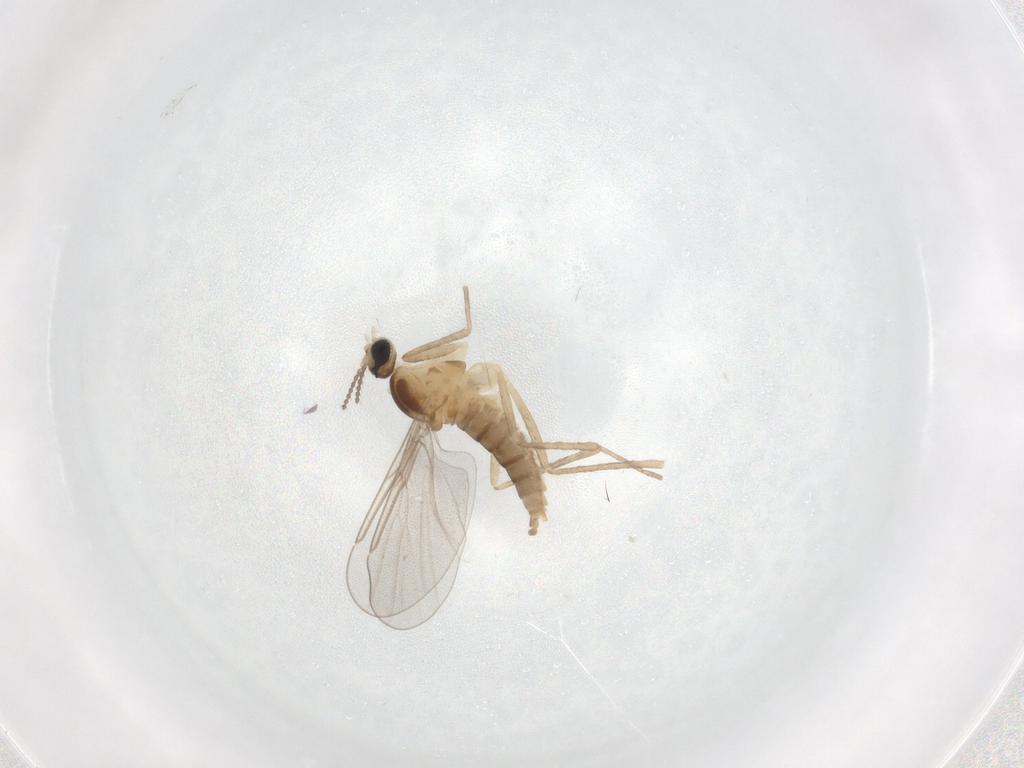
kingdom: Animalia
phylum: Arthropoda
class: Insecta
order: Diptera
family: Cecidomyiidae
